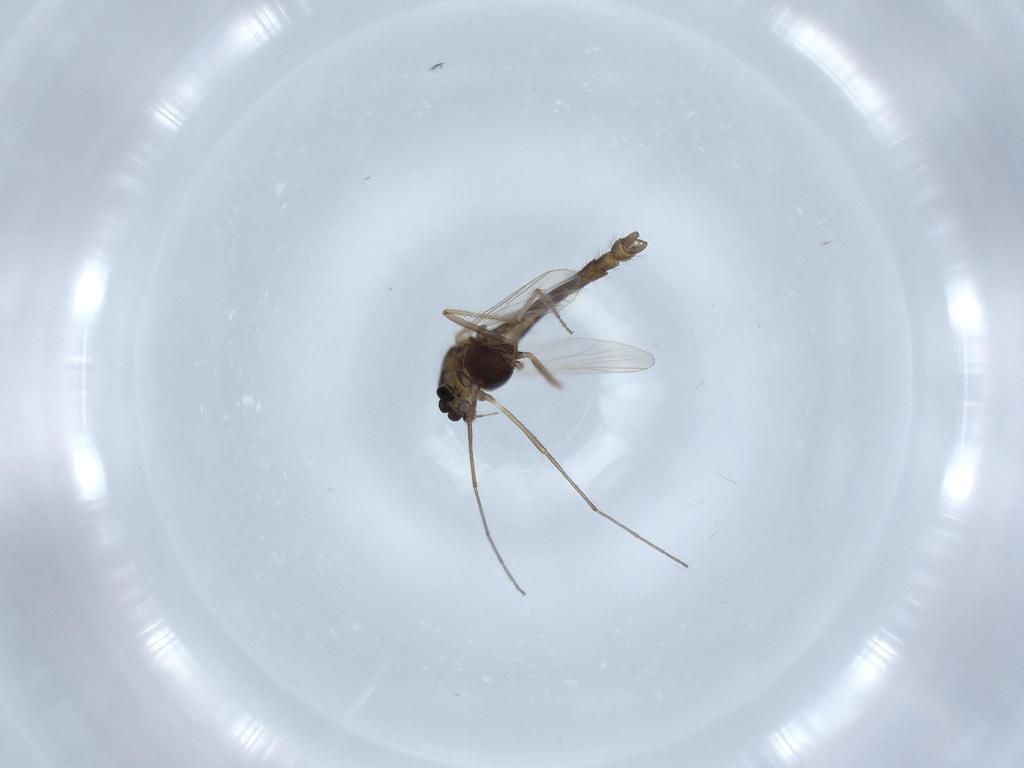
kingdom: Animalia
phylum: Arthropoda
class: Insecta
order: Diptera
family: Chironomidae
